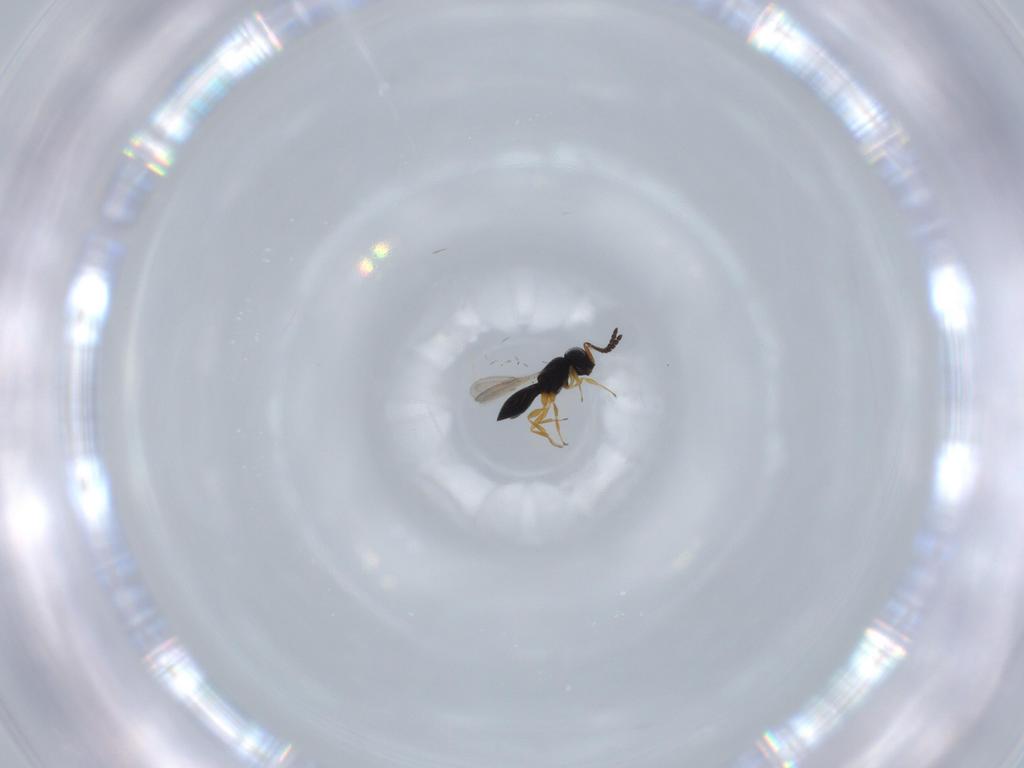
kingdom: Animalia
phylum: Arthropoda
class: Insecta
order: Hymenoptera
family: Scelionidae
